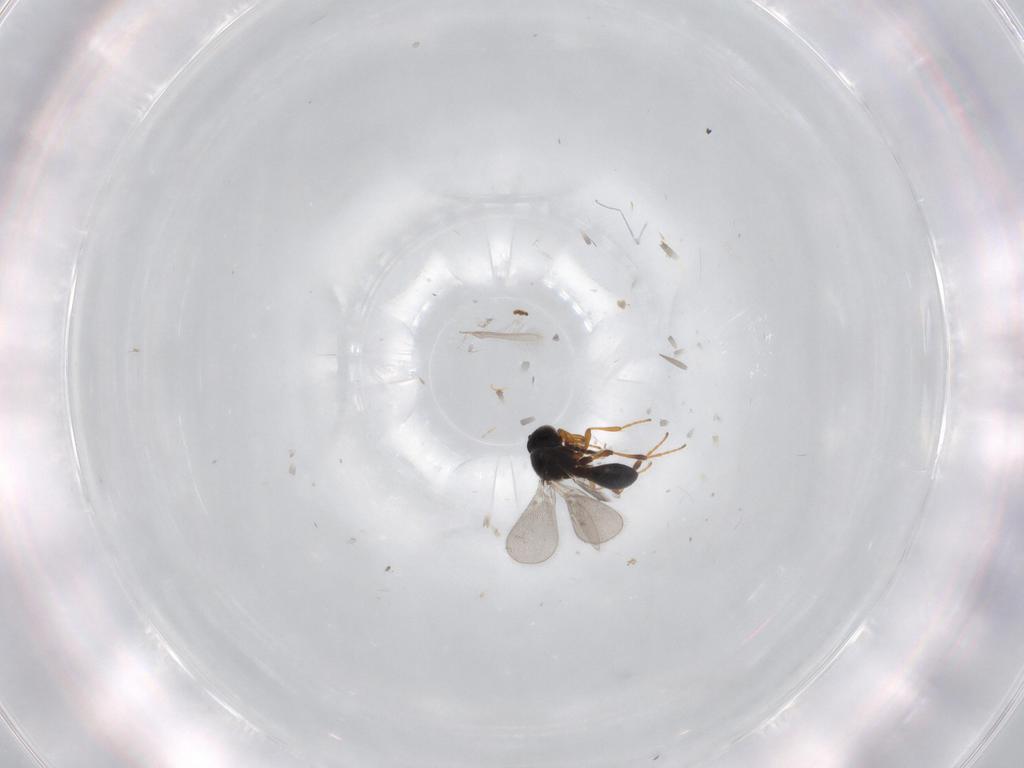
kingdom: Animalia
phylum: Arthropoda
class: Insecta
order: Hymenoptera
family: Platygastridae
